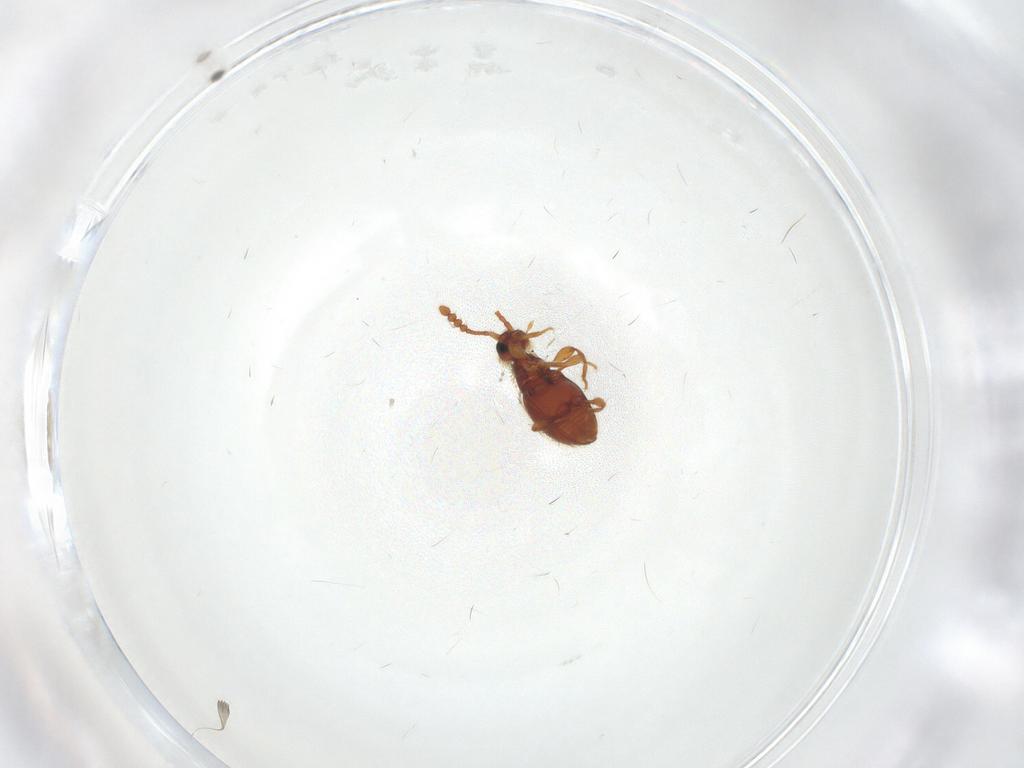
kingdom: Animalia
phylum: Arthropoda
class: Insecta
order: Coleoptera
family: Staphylinidae
